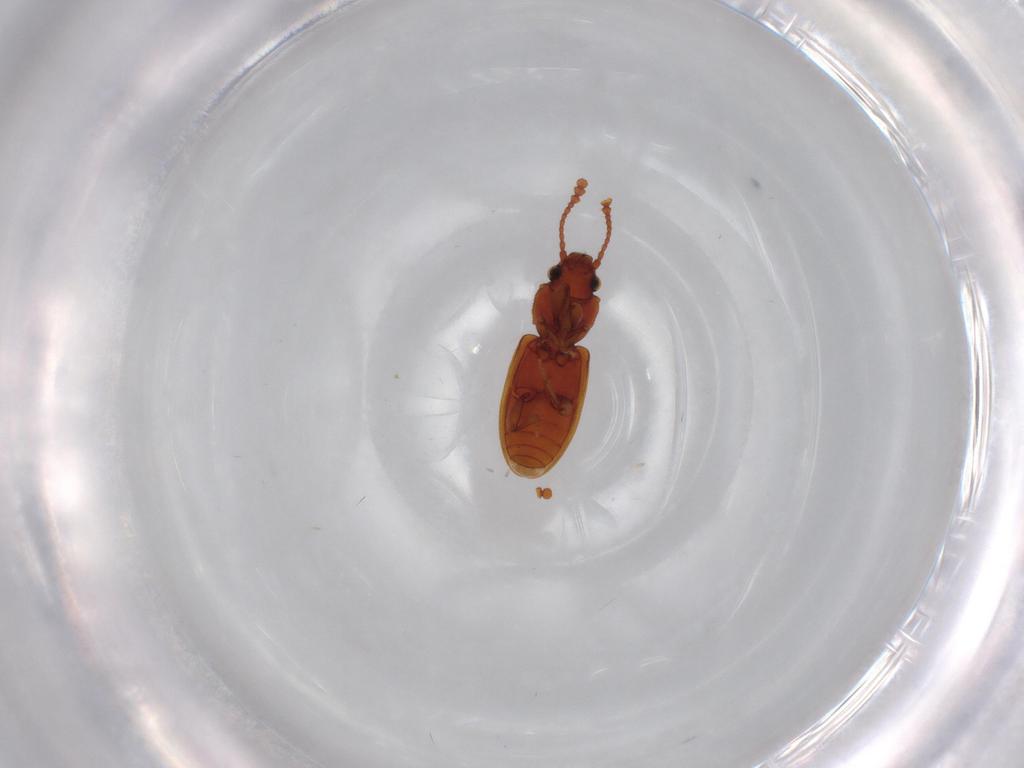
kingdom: Animalia
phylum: Arthropoda
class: Insecta
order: Coleoptera
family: Silvanidae
